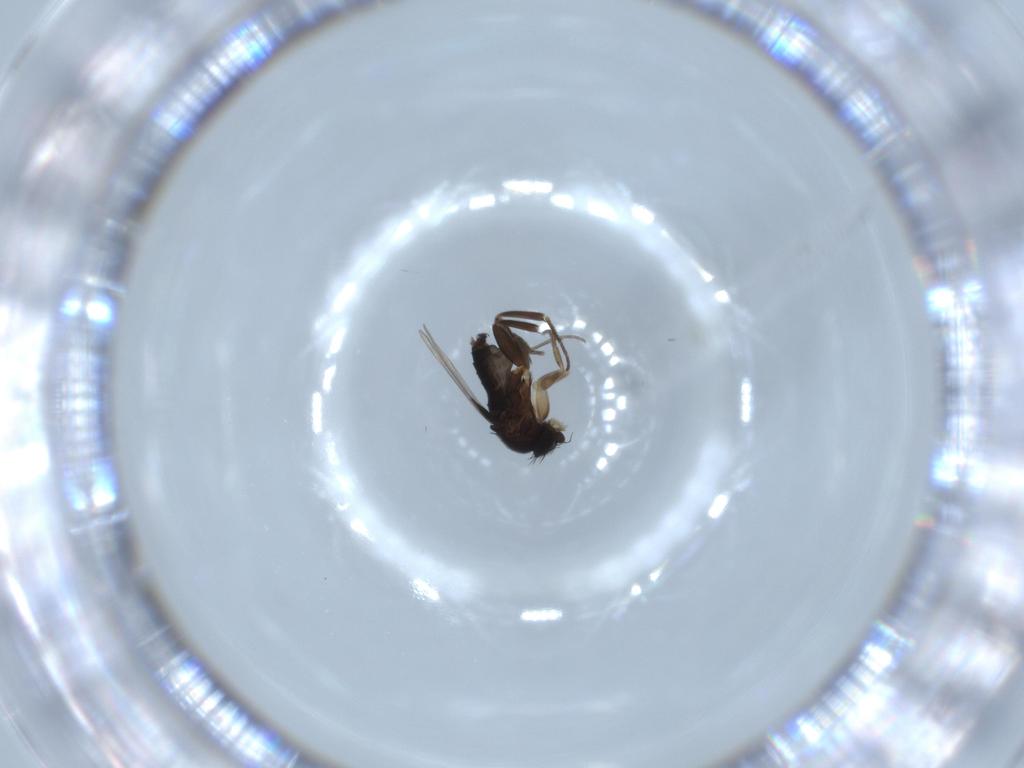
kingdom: Animalia
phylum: Arthropoda
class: Insecta
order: Diptera
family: Phoridae
